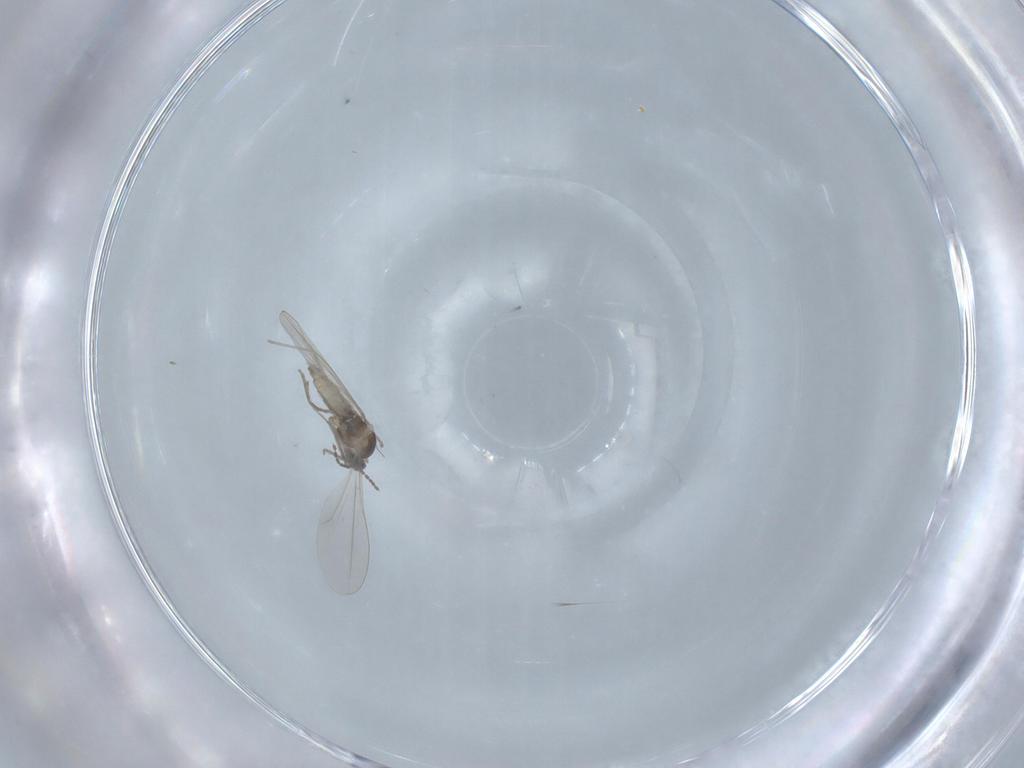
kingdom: Animalia
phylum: Arthropoda
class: Insecta
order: Diptera
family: Cecidomyiidae
